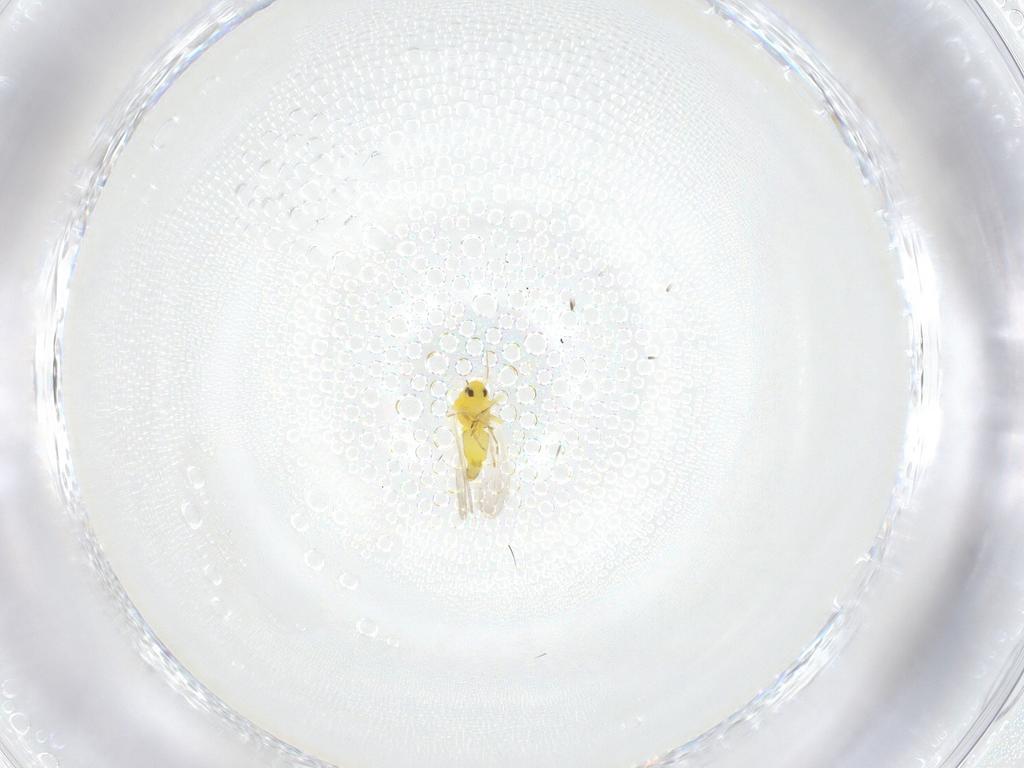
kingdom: Animalia
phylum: Arthropoda
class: Insecta
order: Hemiptera
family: Aleyrodidae
